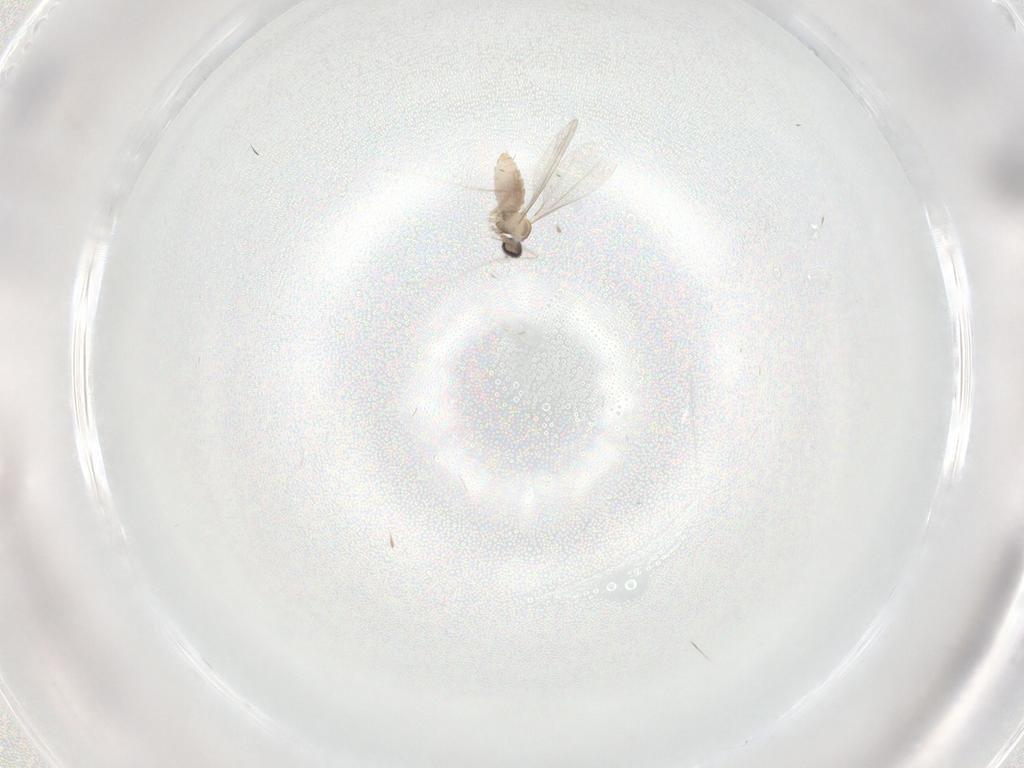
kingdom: Animalia
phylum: Arthropoda
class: Insecta
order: Diptera
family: Cecidomyiidae
